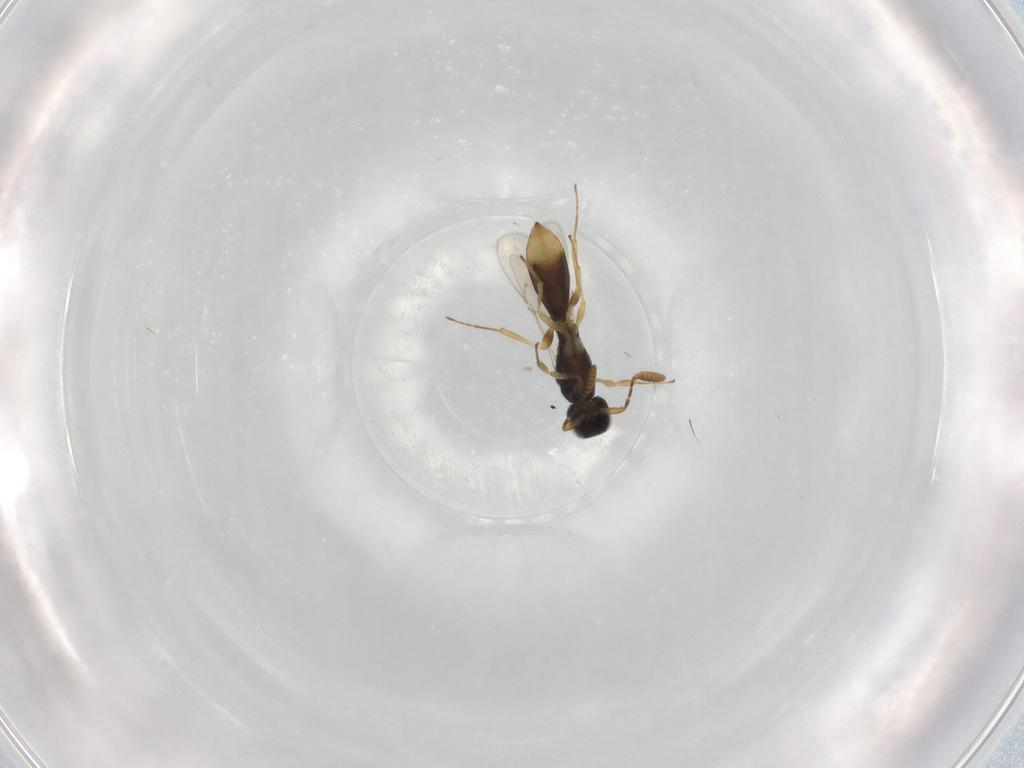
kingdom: Animalia
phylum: Arthropoda
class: Insecta
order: Hymenoptera
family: Scelionidae
